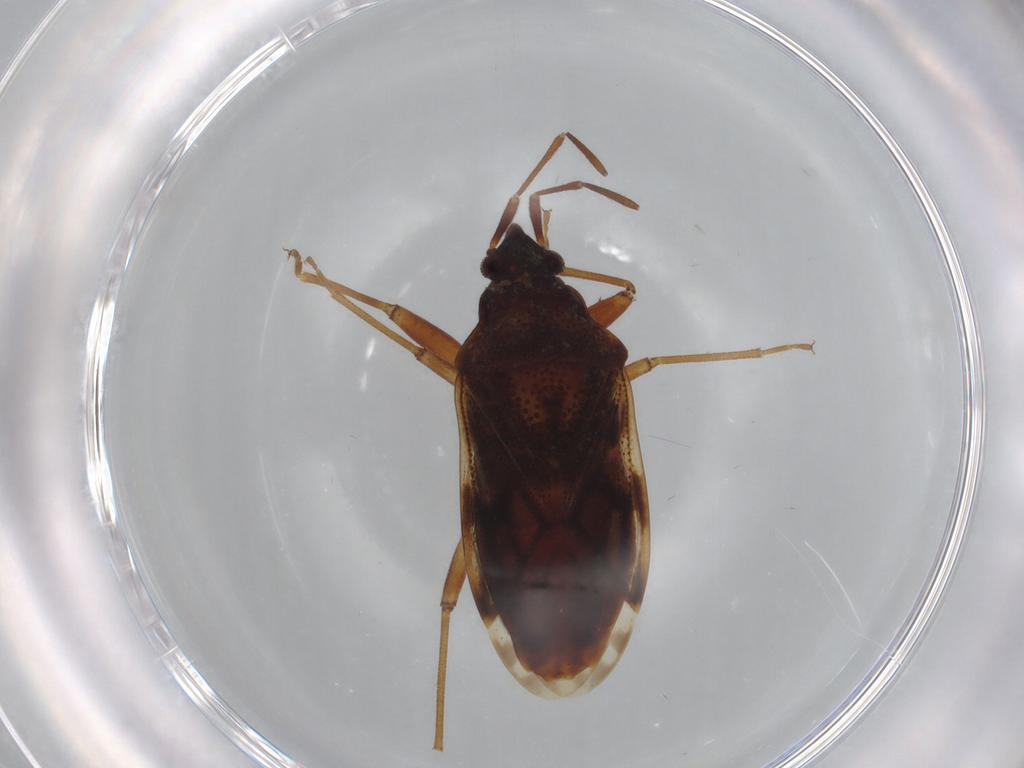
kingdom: Animalia
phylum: Arthropoda
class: Insecta
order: Hemiptera
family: Rhyparochromidae
